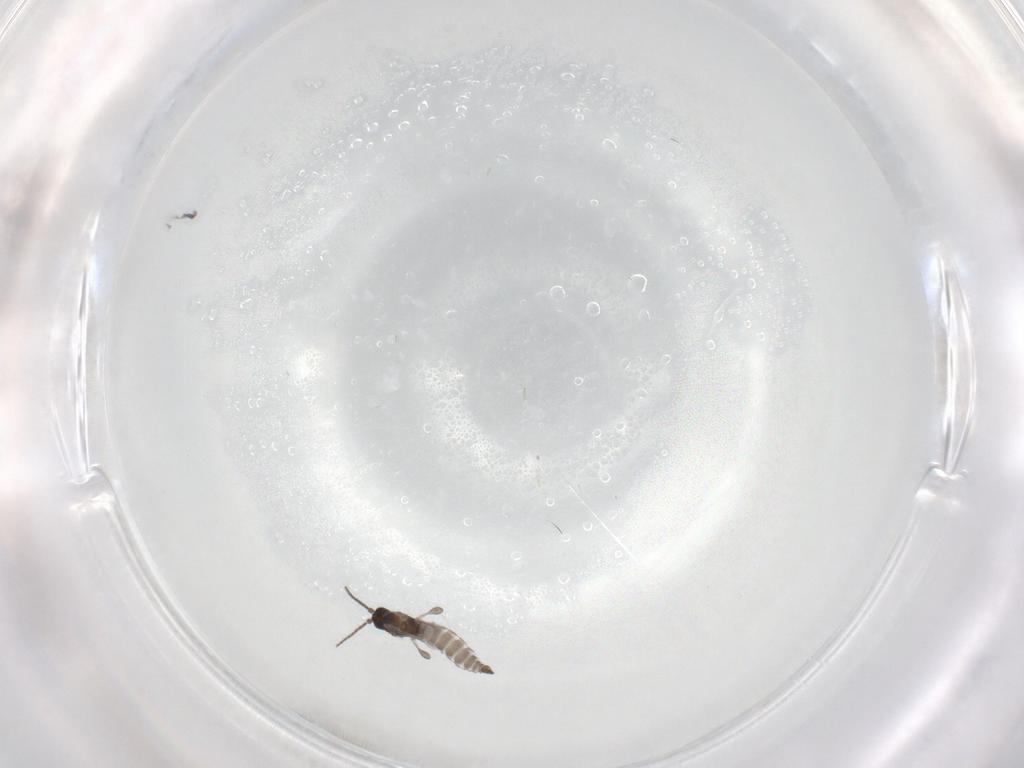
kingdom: Animalia
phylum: Arthropoda
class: Insecta
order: Diptera
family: Sciaridae
